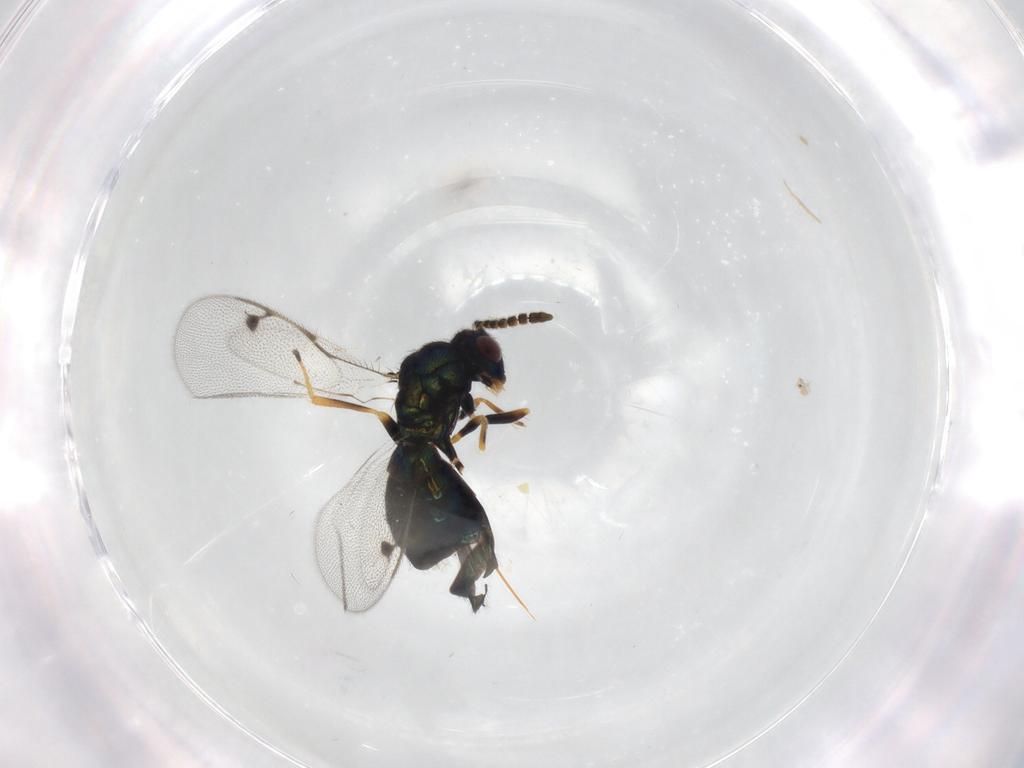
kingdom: Animalia
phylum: Arthropoda
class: Insecta
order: Hymenoptera
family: Pirenidae
